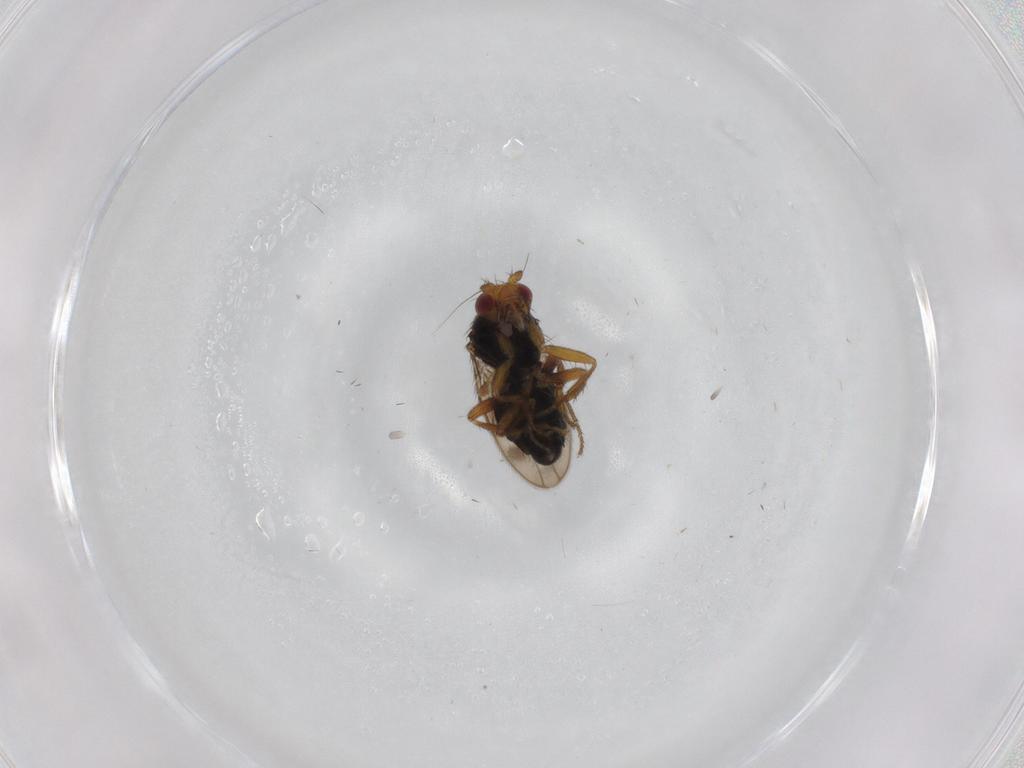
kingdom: Animalia
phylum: Arthropoda
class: Insecta
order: Diptera
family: Sphaeroceridae
